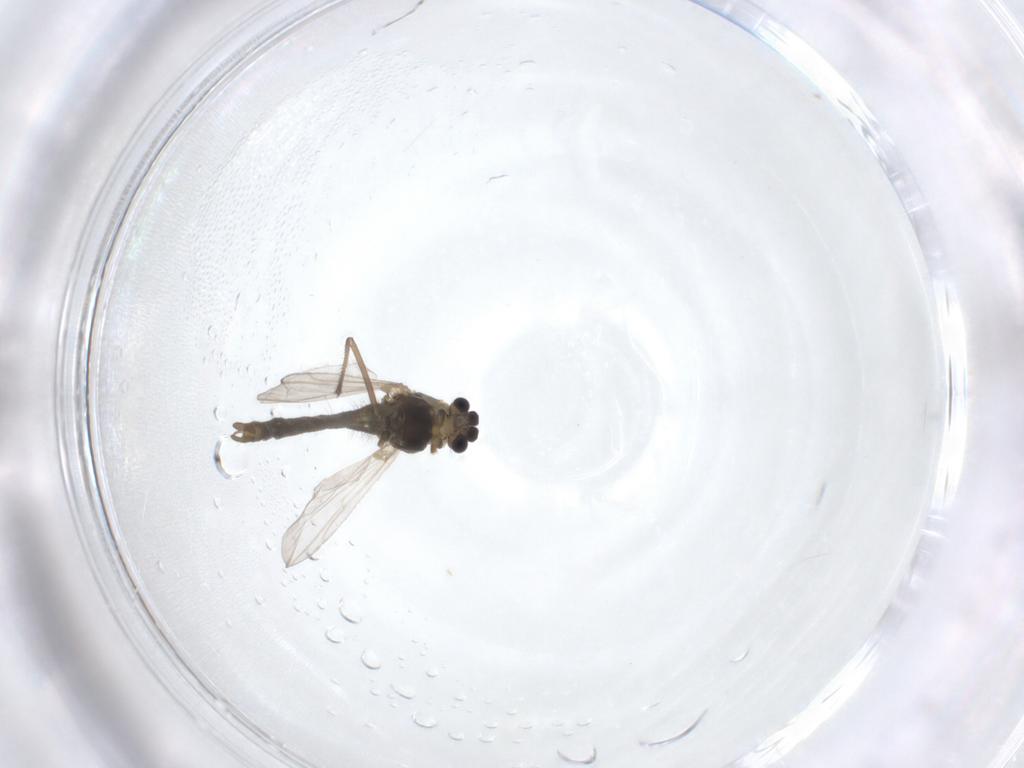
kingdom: Animalia
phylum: Arthropoda
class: Insecta
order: Diptera
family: Chironomidae
